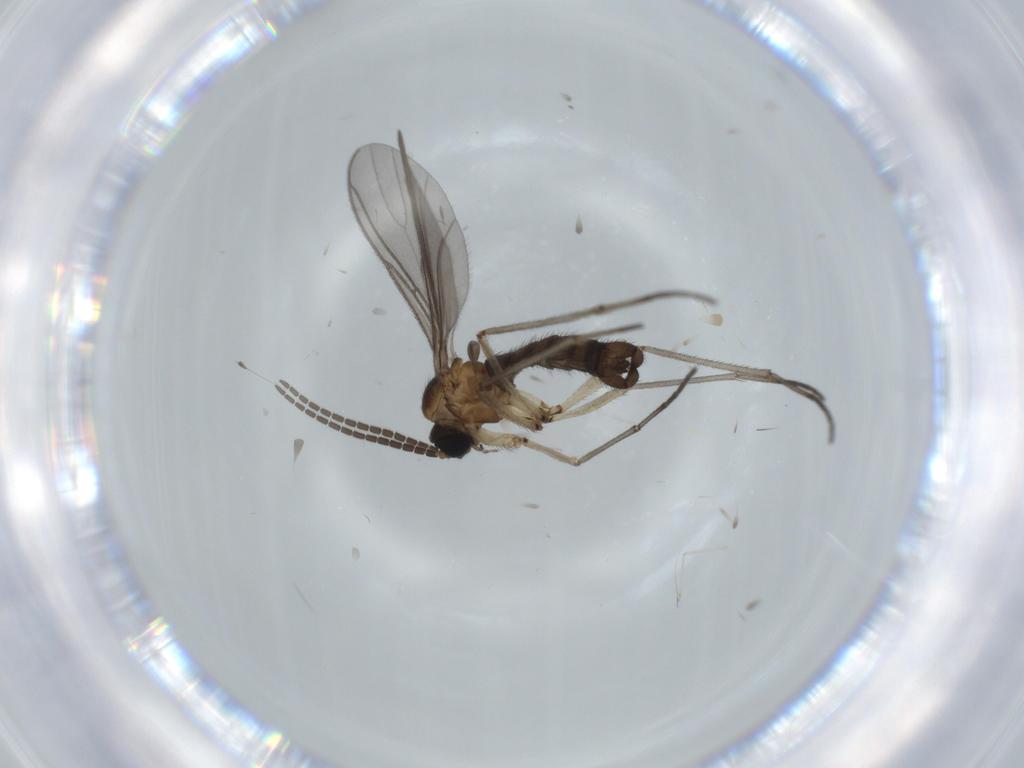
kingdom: Animalia
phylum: Arthropoda
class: Insecta
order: Diptera
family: Sciaridae
